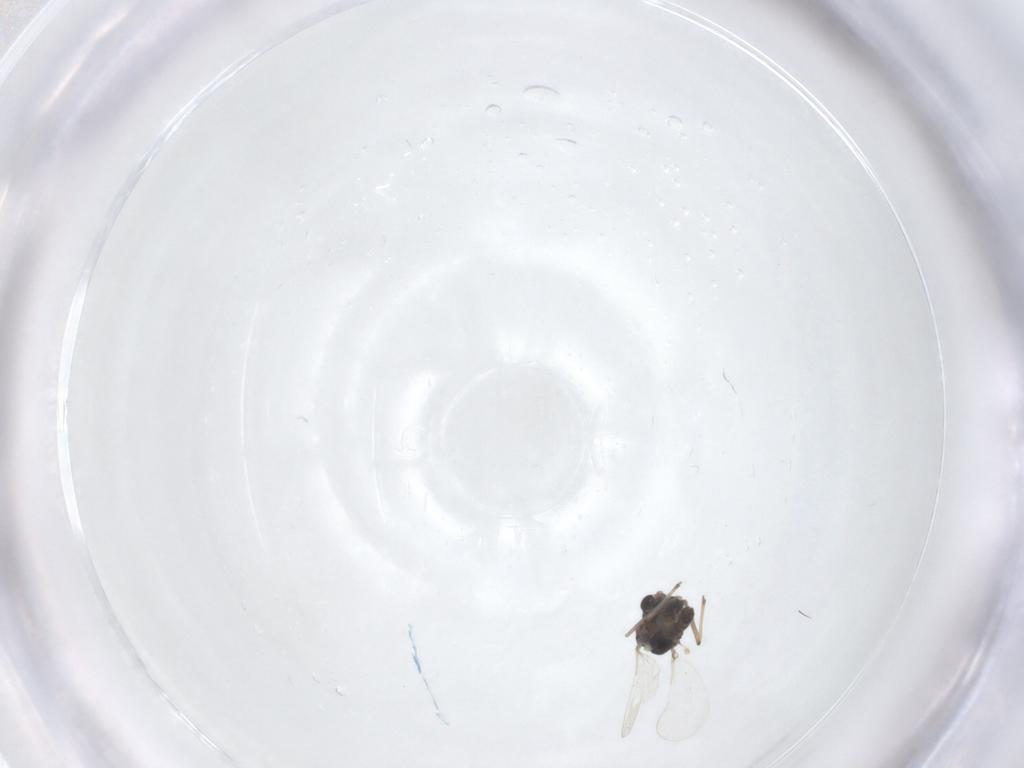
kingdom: Animalia
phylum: Arthropoda
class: Insecta
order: Diptera
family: Chironomidae
